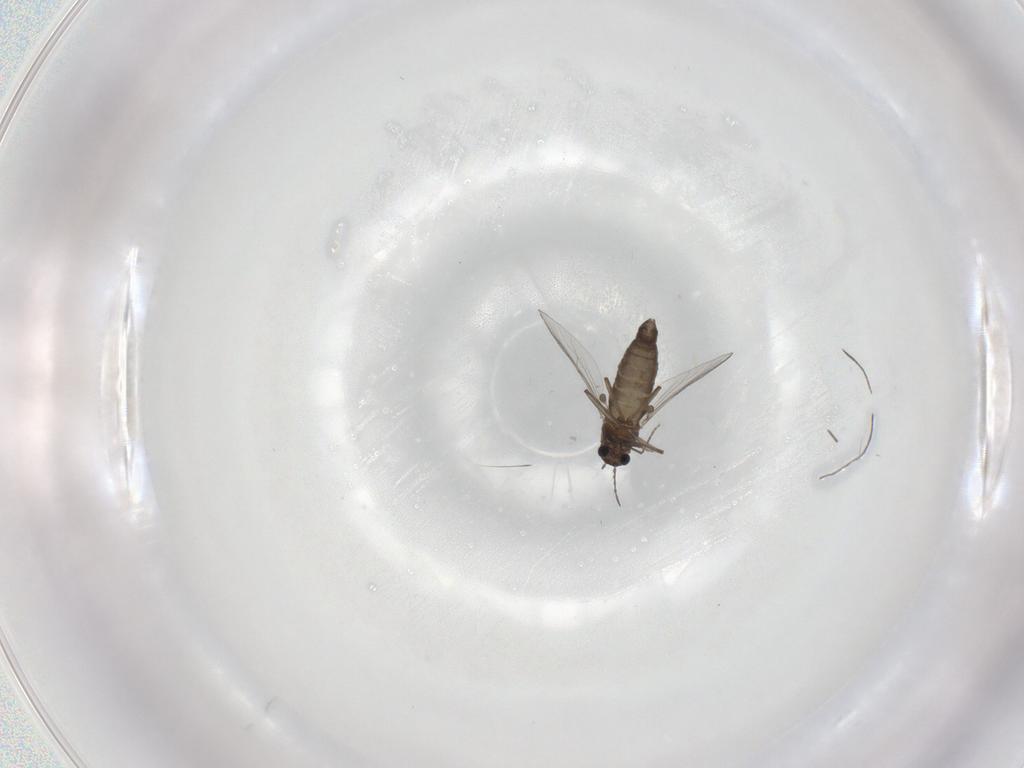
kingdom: Animalia
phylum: Arthropoda
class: Insecta
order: Diptera
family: Chironomidae
